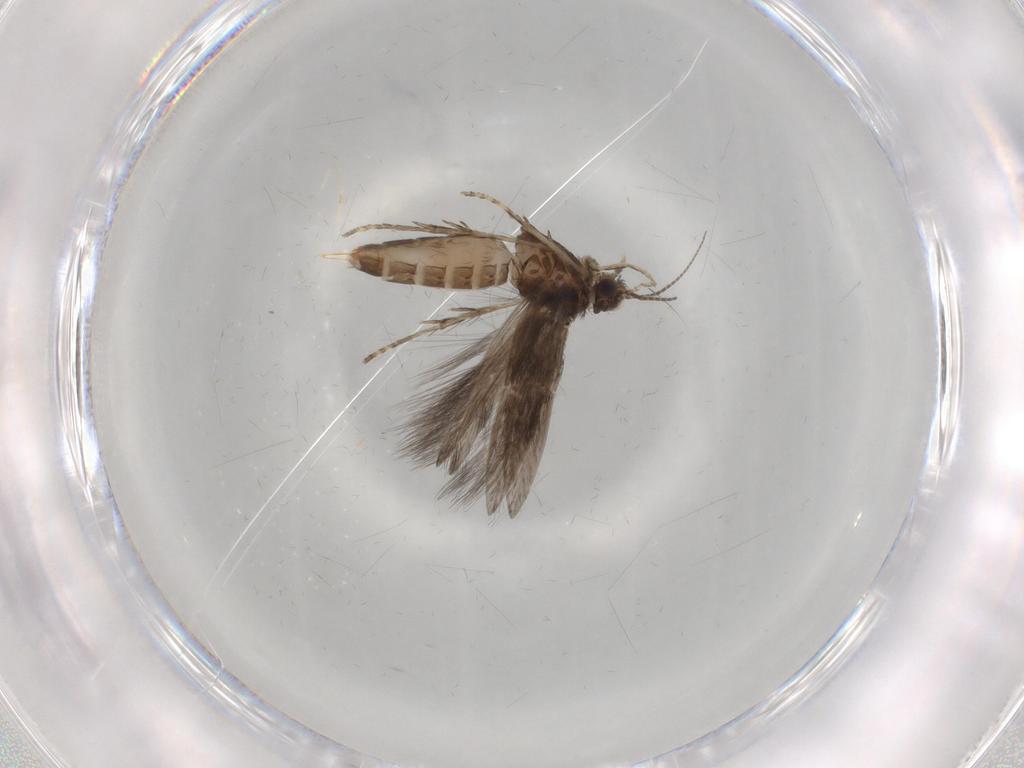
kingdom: Animalia
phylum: Arthropoda
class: Insecta
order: Trichoptera
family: Hydroptilidae
